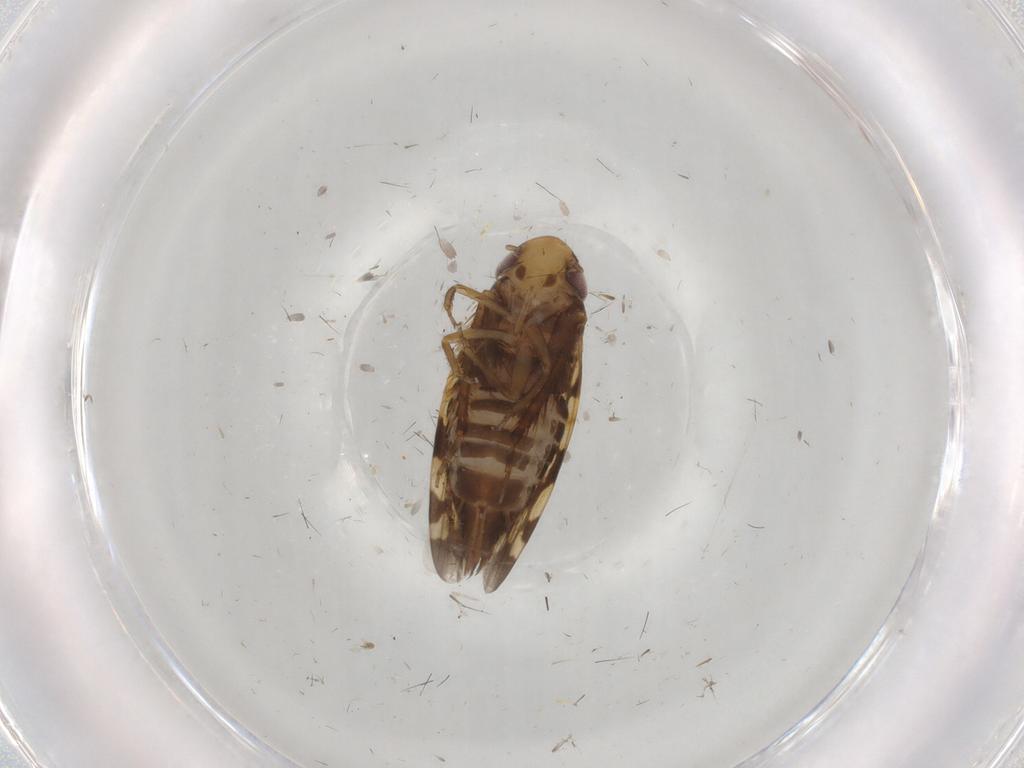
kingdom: Animalia
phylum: Arthropoda
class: Insecta
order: Hemiptera
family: Cicadellidae
